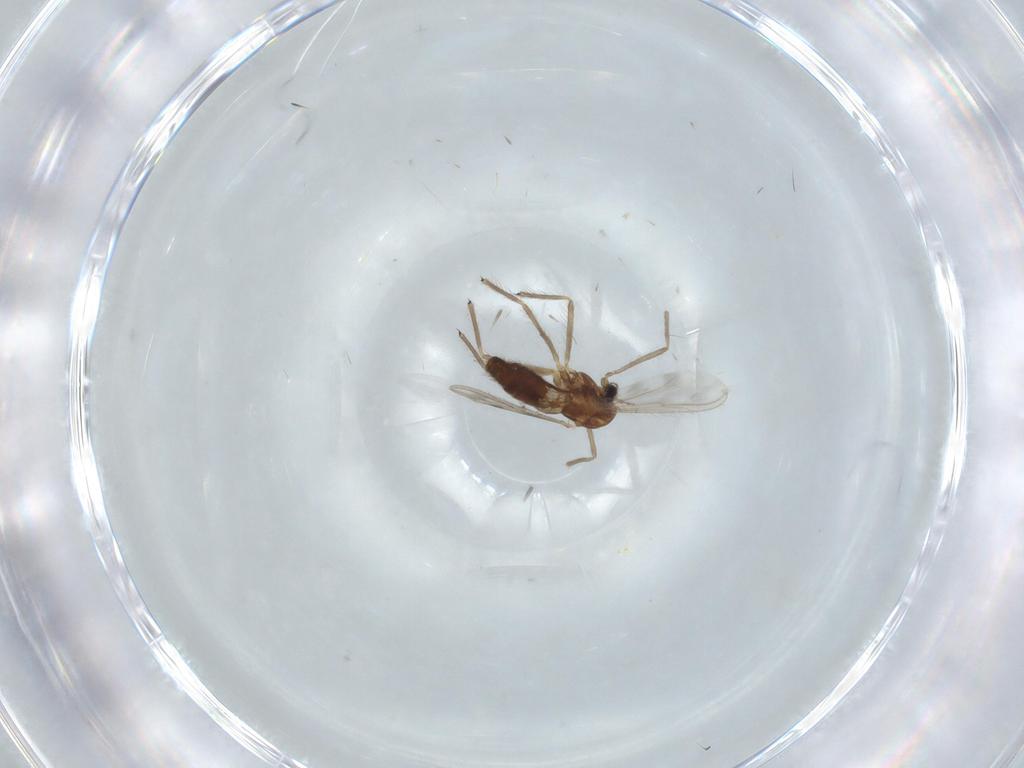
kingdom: Animalia
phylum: Arthropoda
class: Insecta
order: Diptera
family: Chironomidae
